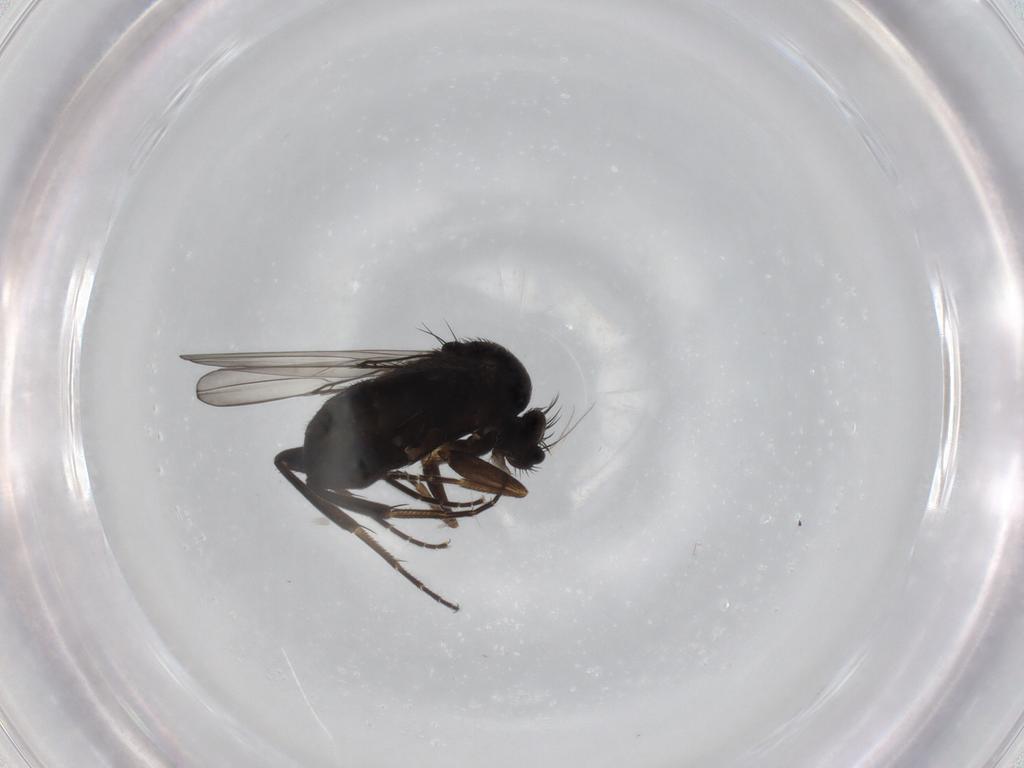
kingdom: Animalia
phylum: Arthropoda
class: Insecta
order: Diptera
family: Phoridae
